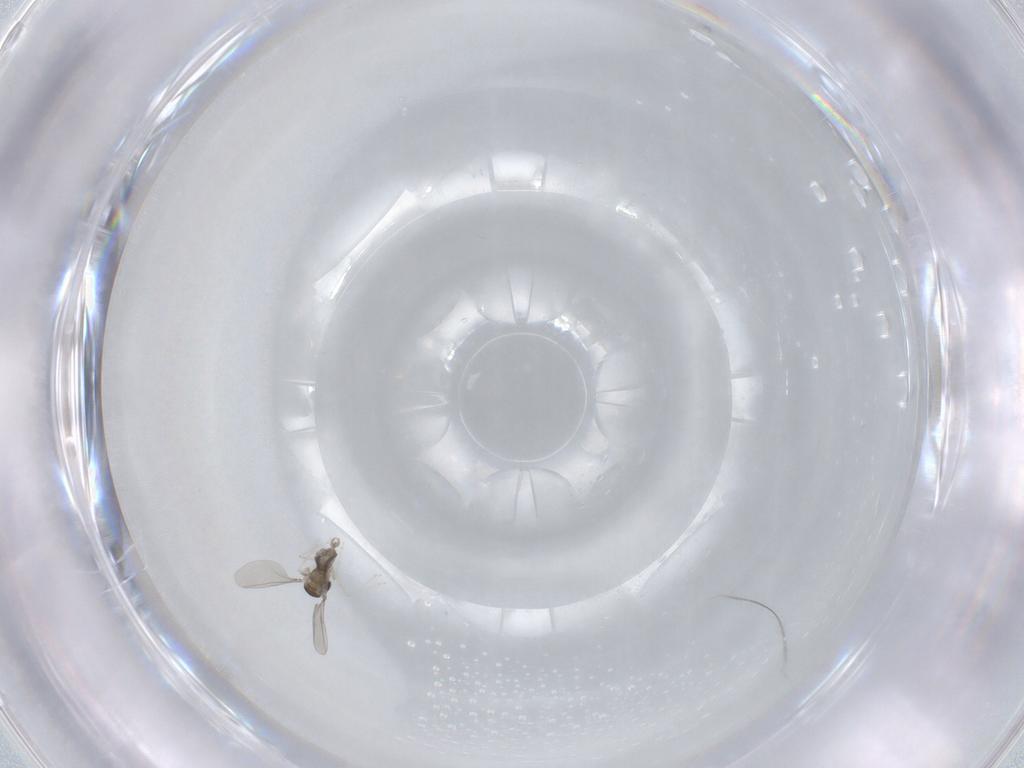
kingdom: Animalia
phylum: Arthropoda
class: Insecta
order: Diptera
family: Cecidomyiidae
